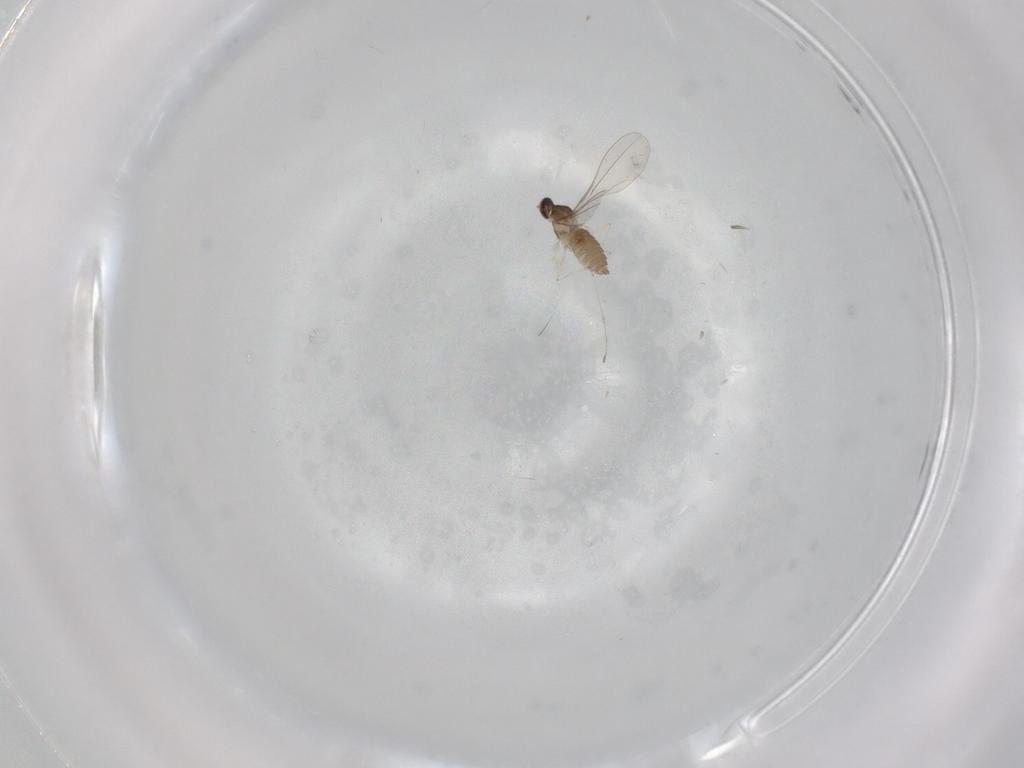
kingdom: Animalia
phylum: Arthropoda
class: Insecta
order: Diptera
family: Cecidomyiidae
